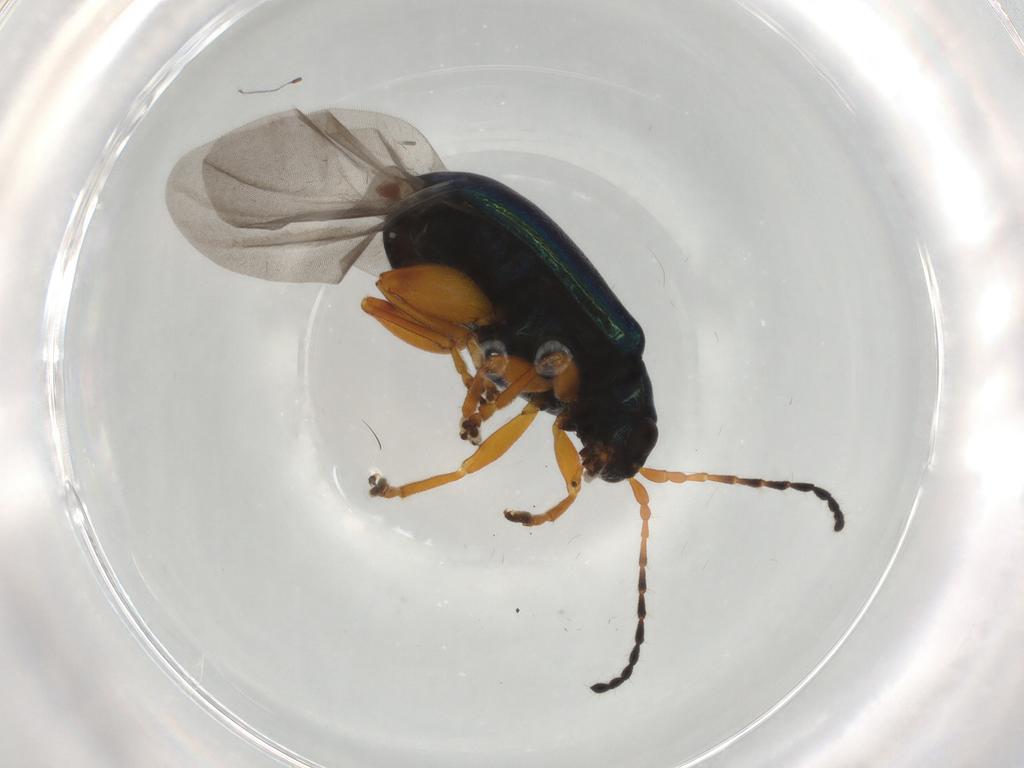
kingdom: Animalia
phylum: Arthropoda
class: Insecta
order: Coleoptera
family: Chrysomelidae
